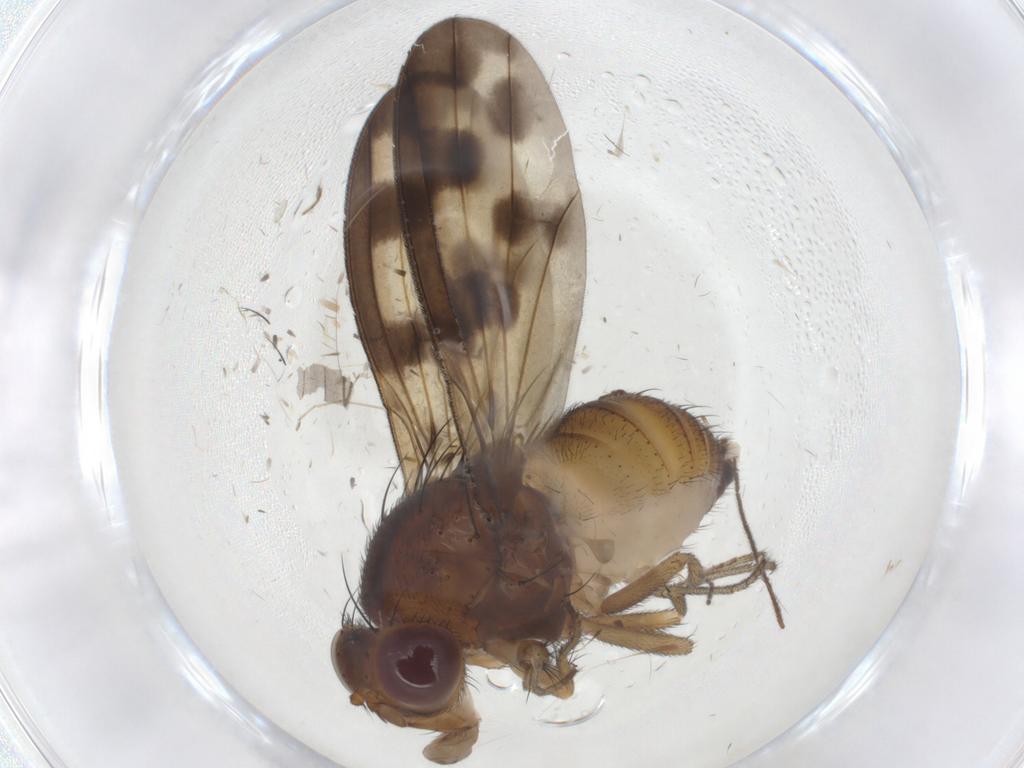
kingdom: Animalia
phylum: Arthropoda
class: Insecta
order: Diptera
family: Limoniidae
